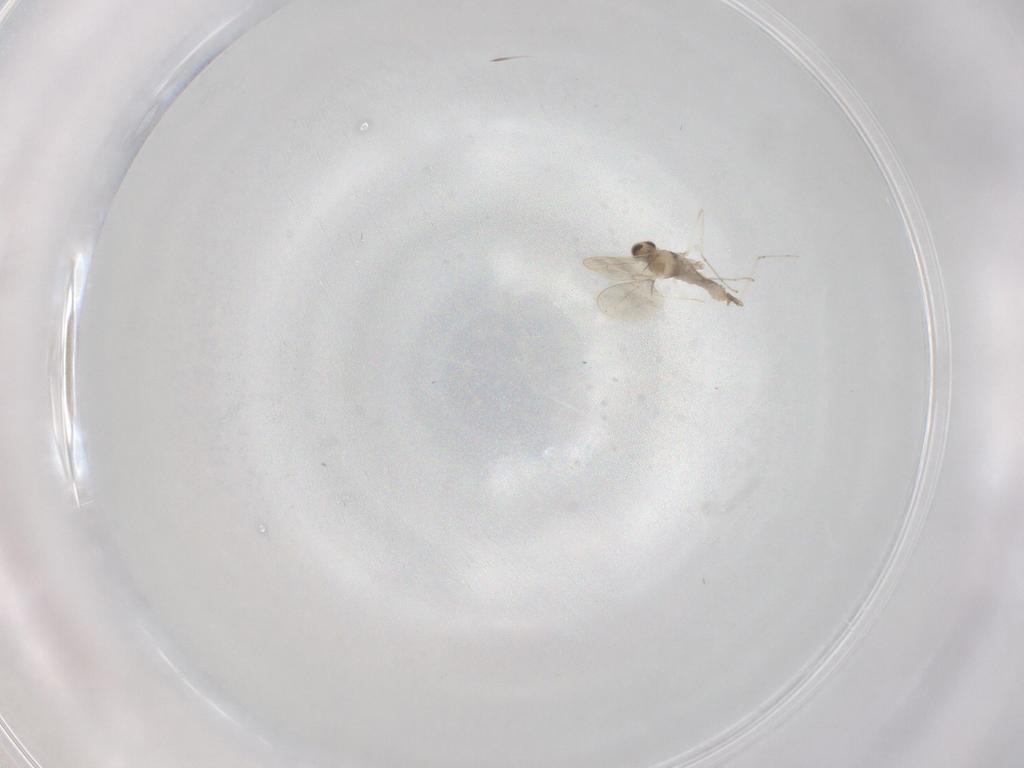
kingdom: Animalia
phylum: Arthropoda
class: Insecta
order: Diptera
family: Cecidomyiidae
